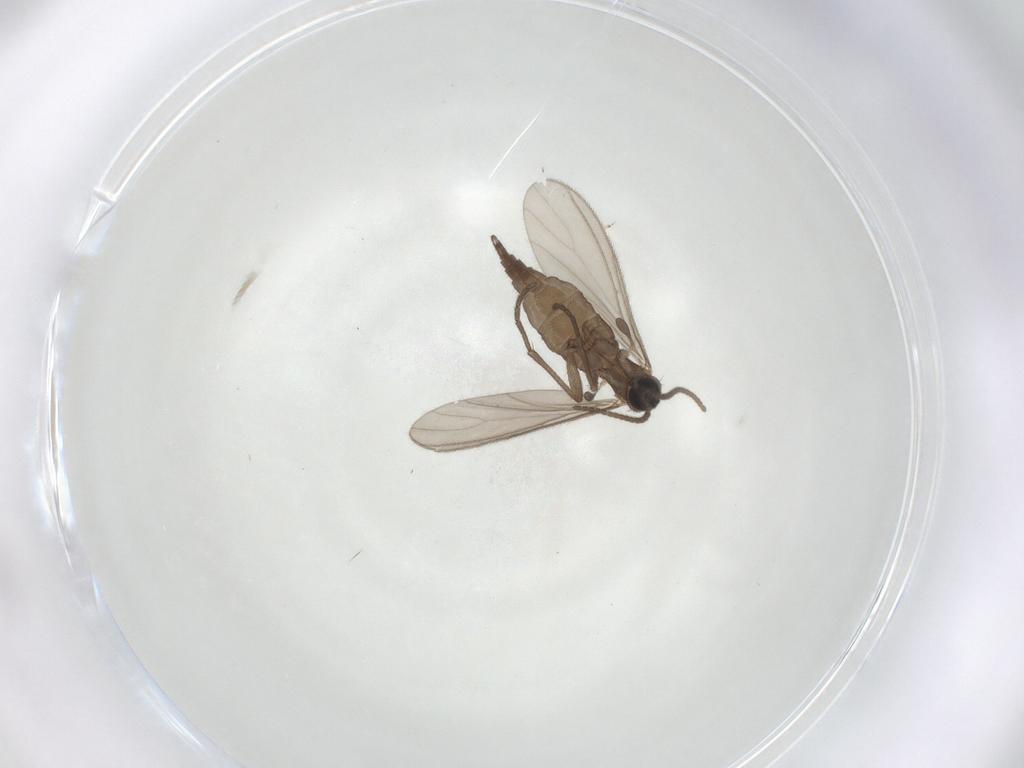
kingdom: Animalia
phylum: Arthropoda
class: Insecta
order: Diptera
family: Sciaridae
